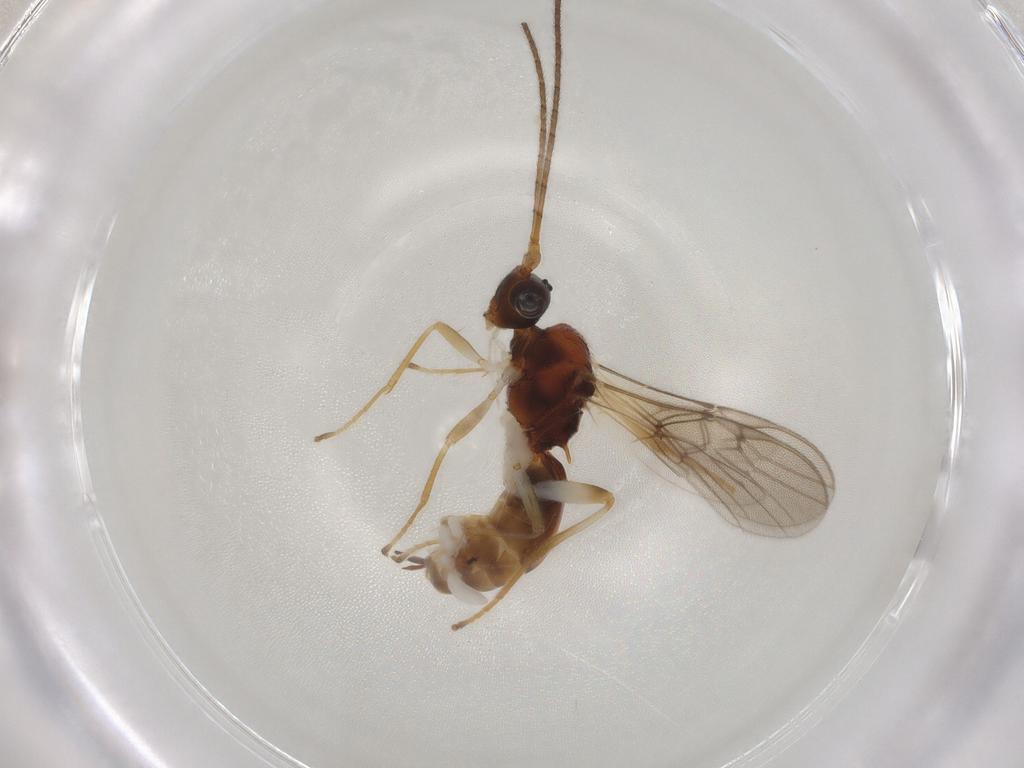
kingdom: Animalia
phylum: Arthropoda
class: Insecta
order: Hymenoptera
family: Braconidae
